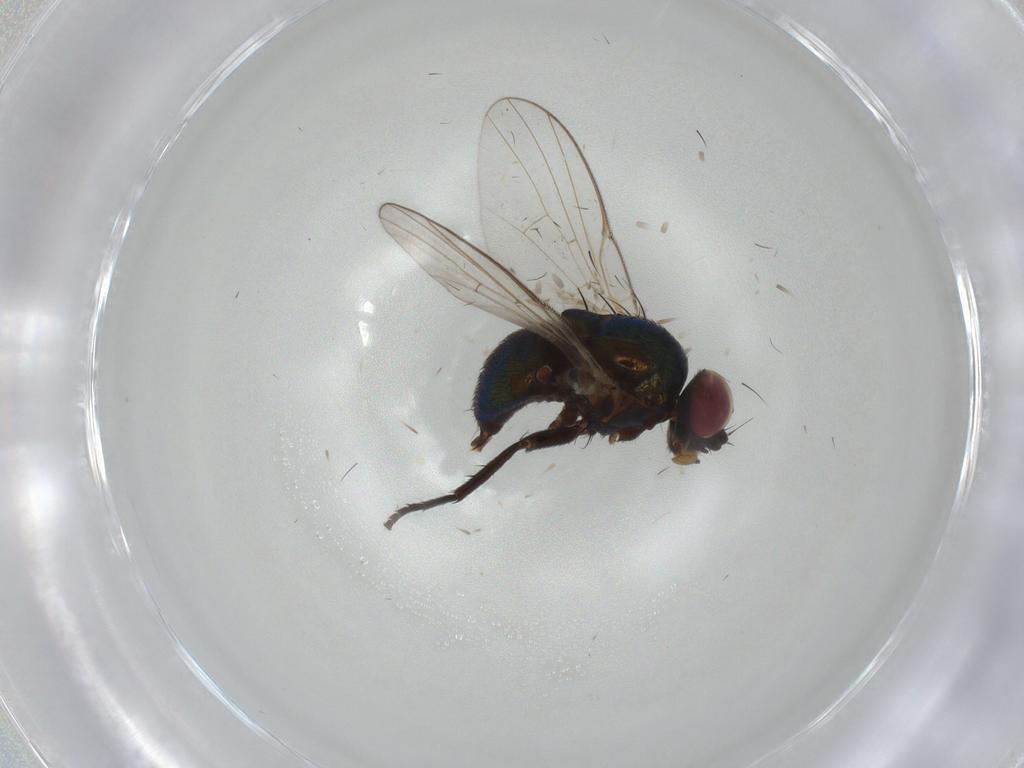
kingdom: Animalia
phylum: Arthropoda
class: Insecta
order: Diptera
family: Agromyzidae
